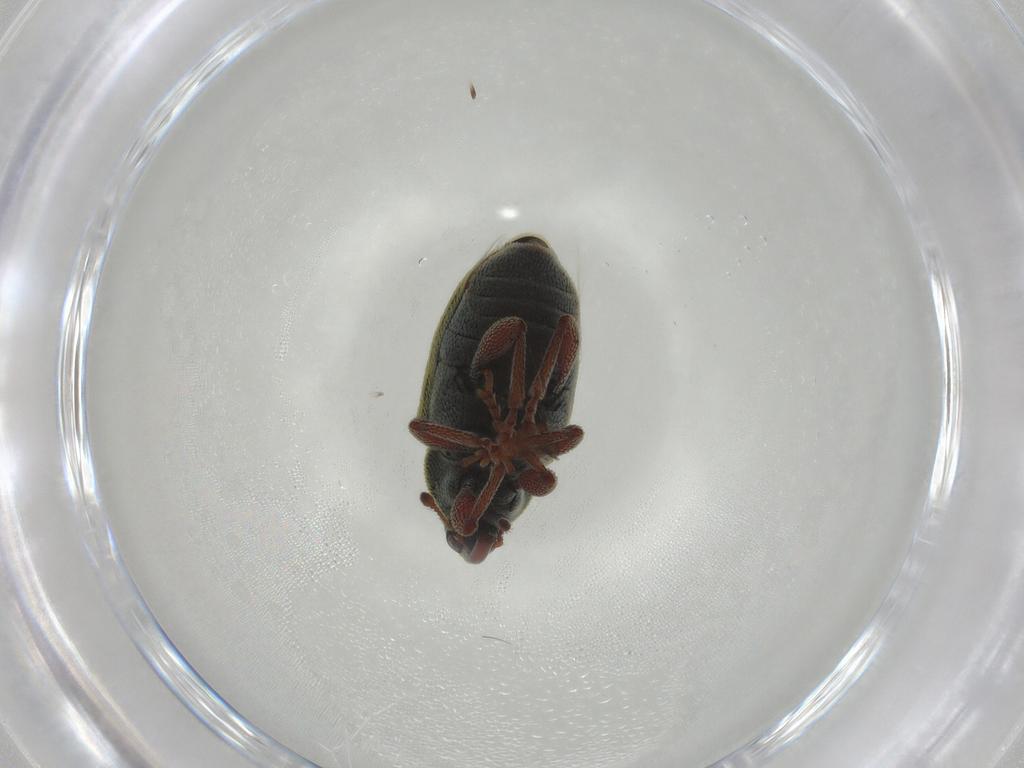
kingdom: Animalia
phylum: Arthropoda
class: Insecta
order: Coleoptera
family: Curculionidae
